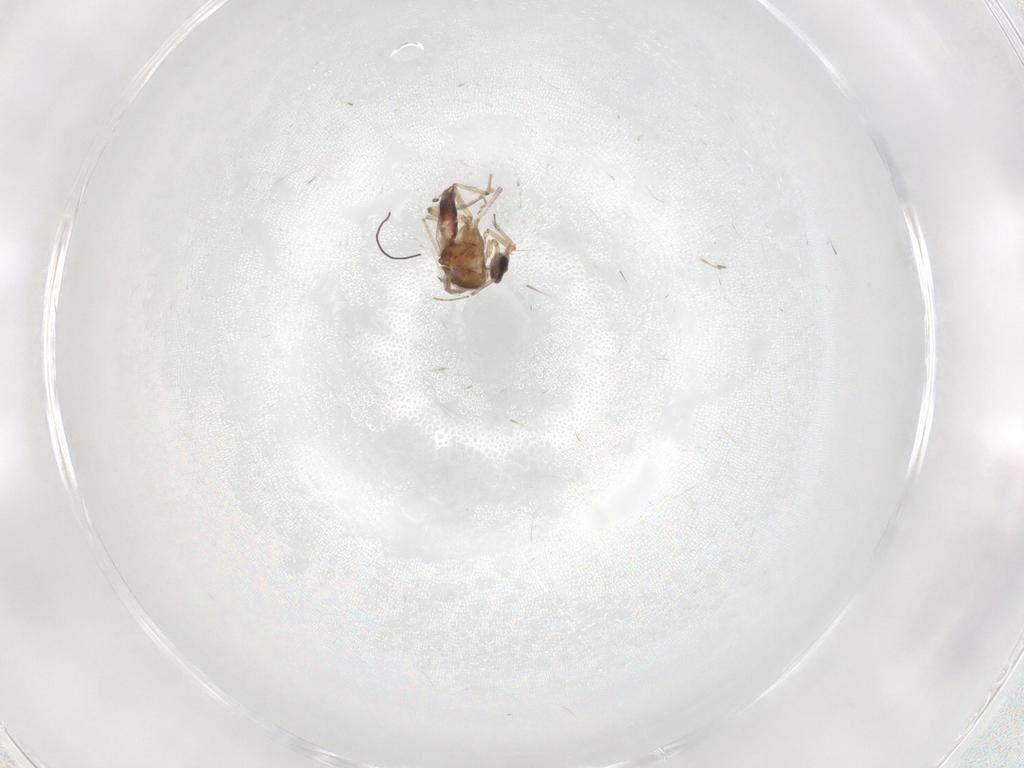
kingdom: Animalia
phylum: Arthropoda
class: Insecta
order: Diptera
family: Ceratopogonidae
